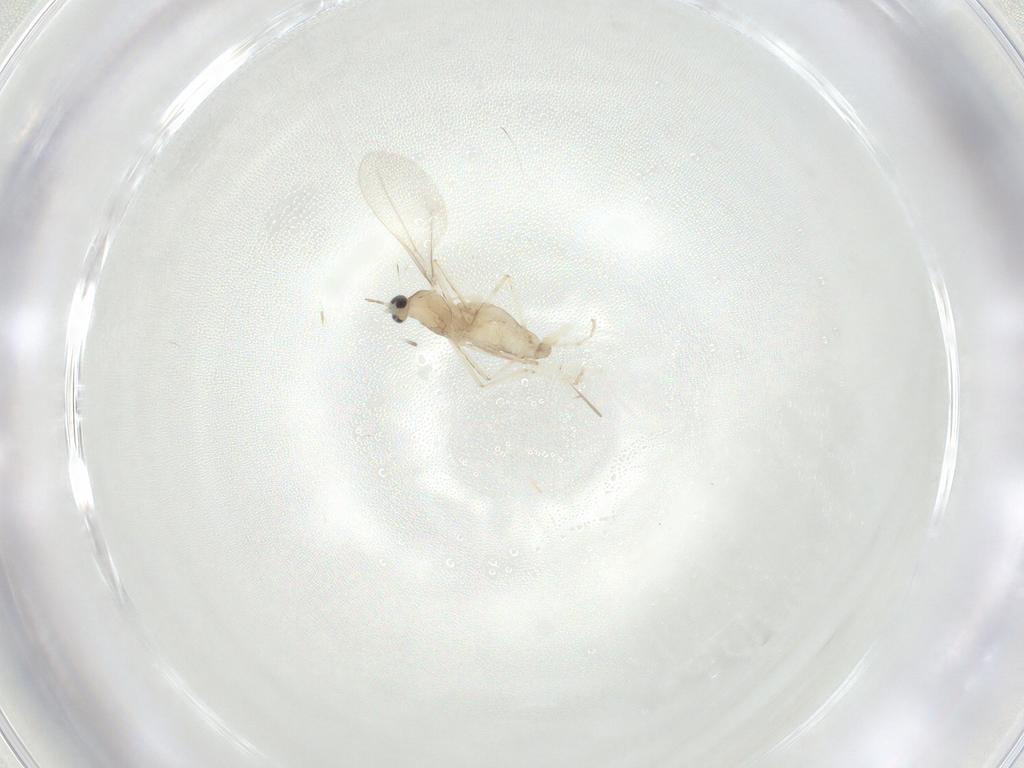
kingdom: Animalia
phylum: Arthropoda
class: Insecta
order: Diptera
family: Cecidomyiidae
